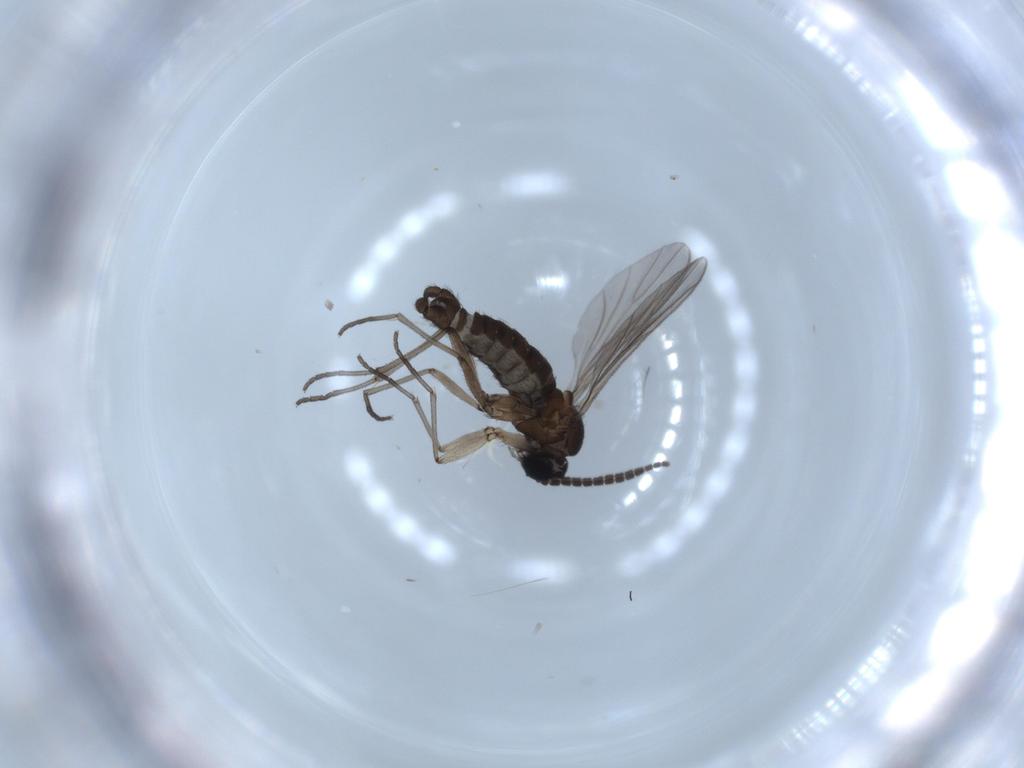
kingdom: Animalia
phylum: Arthropoda
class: Insecta
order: Diptera
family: Sciaridae
